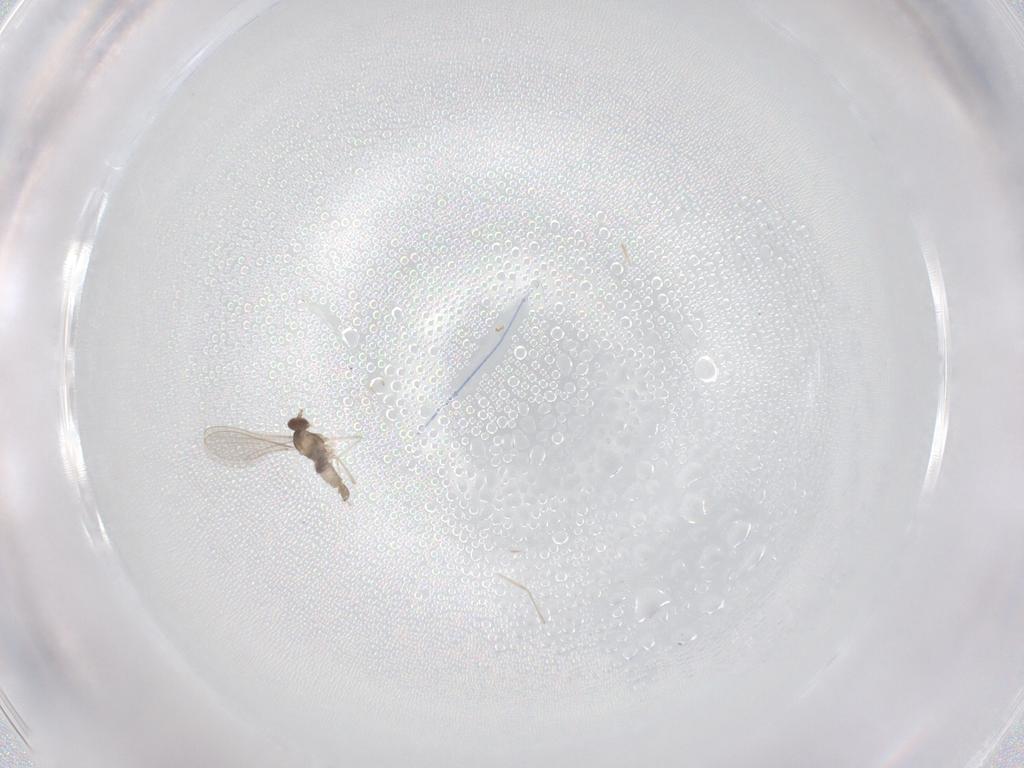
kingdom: Animalia
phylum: Arthropoda
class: Insecta
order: Diptera
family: Cecidomyiidae
